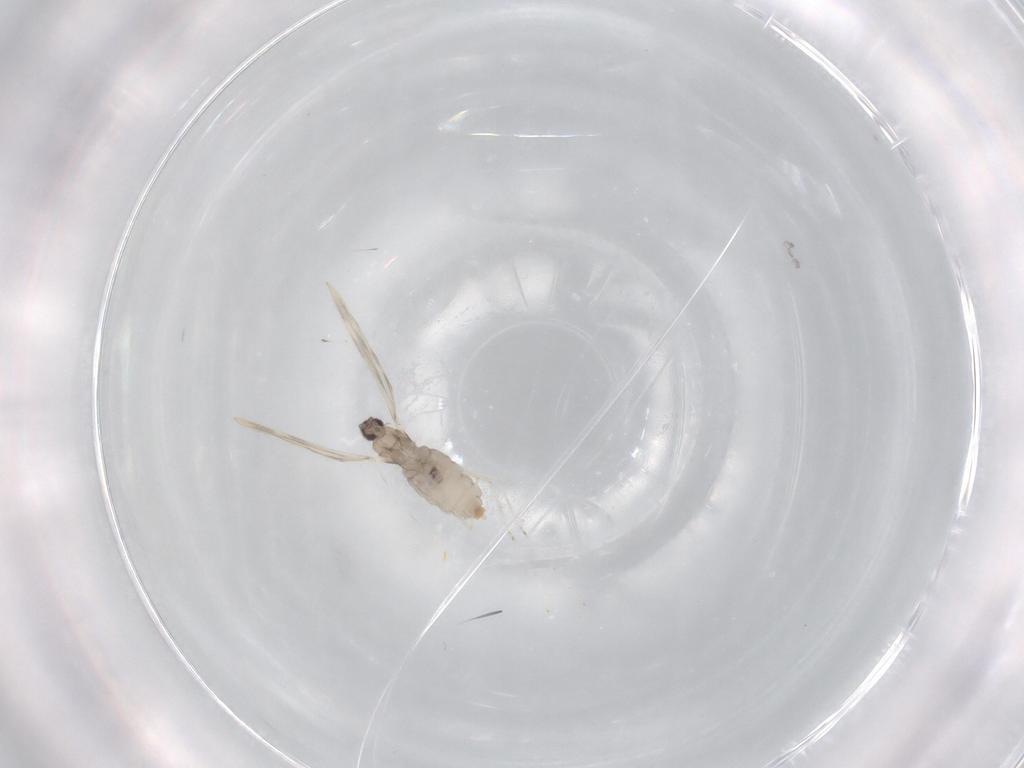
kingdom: Animalia
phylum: Arthropoda
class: Insecta
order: Diptera
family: Cecidomyiidae
